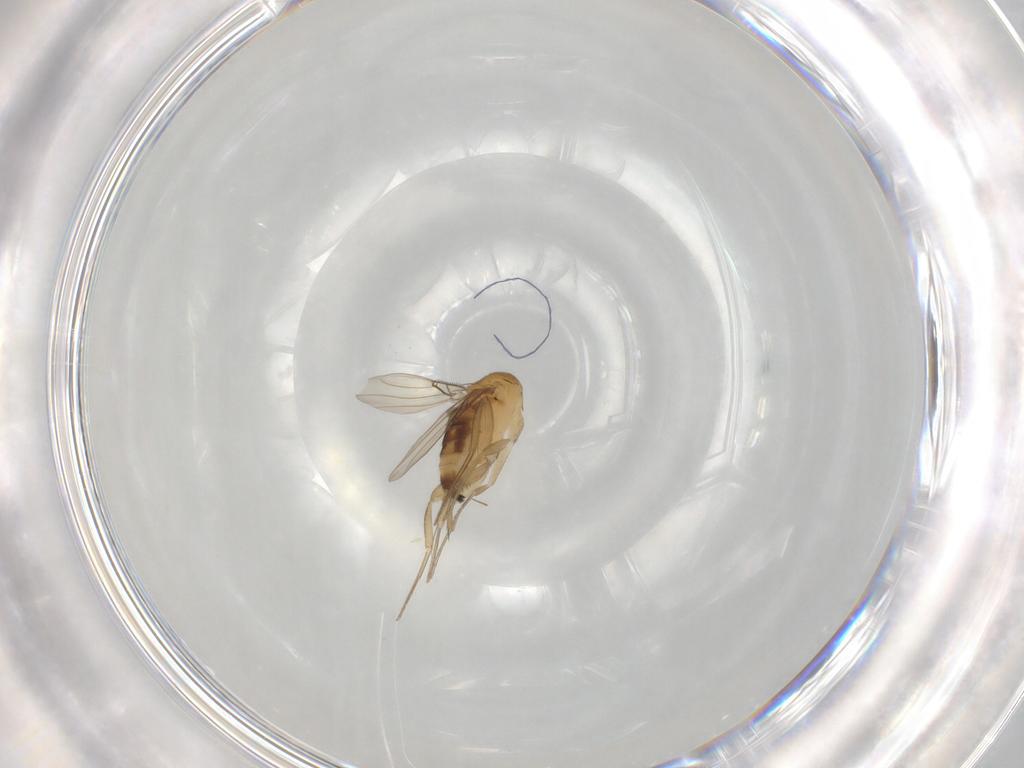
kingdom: Animalia
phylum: Arthropoda
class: Insecta
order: Diptera
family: Phoridae
